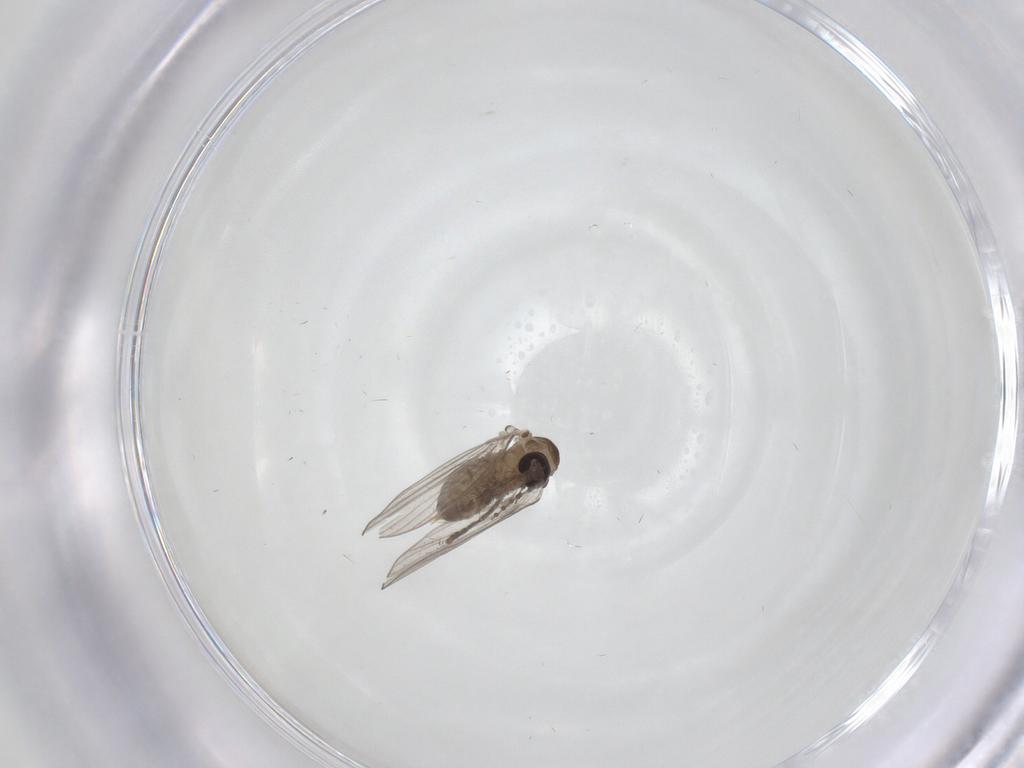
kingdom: Animalia
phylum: Arthropoda
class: Insecta
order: Diptera
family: Psychodidae
